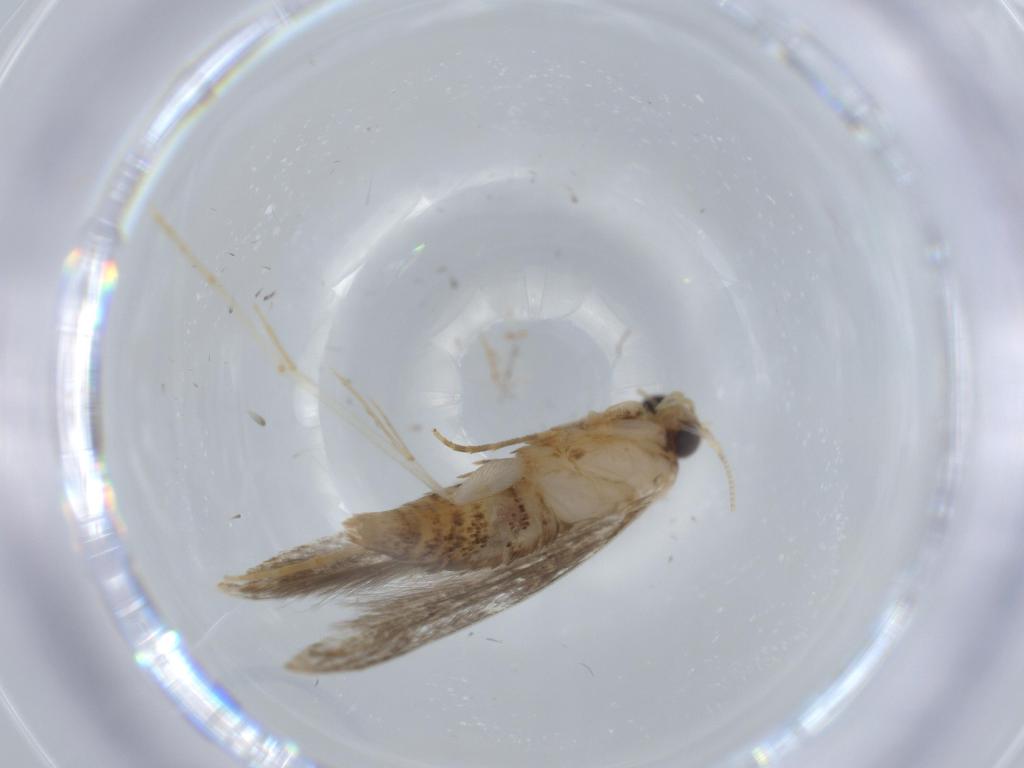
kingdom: Animalia
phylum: Arthropoda
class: Insecta
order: Lepidoptera
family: Tineidae
